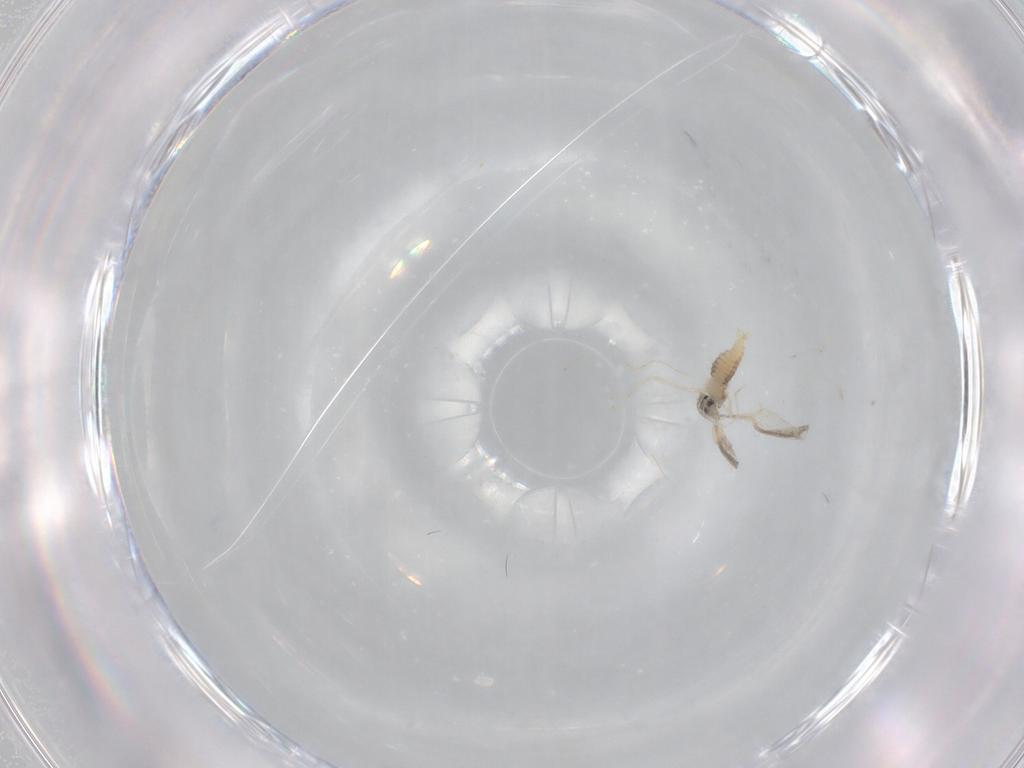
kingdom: Animalia
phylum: Arthropoda
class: Insecta
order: Diptera
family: Cecidomyiidae
